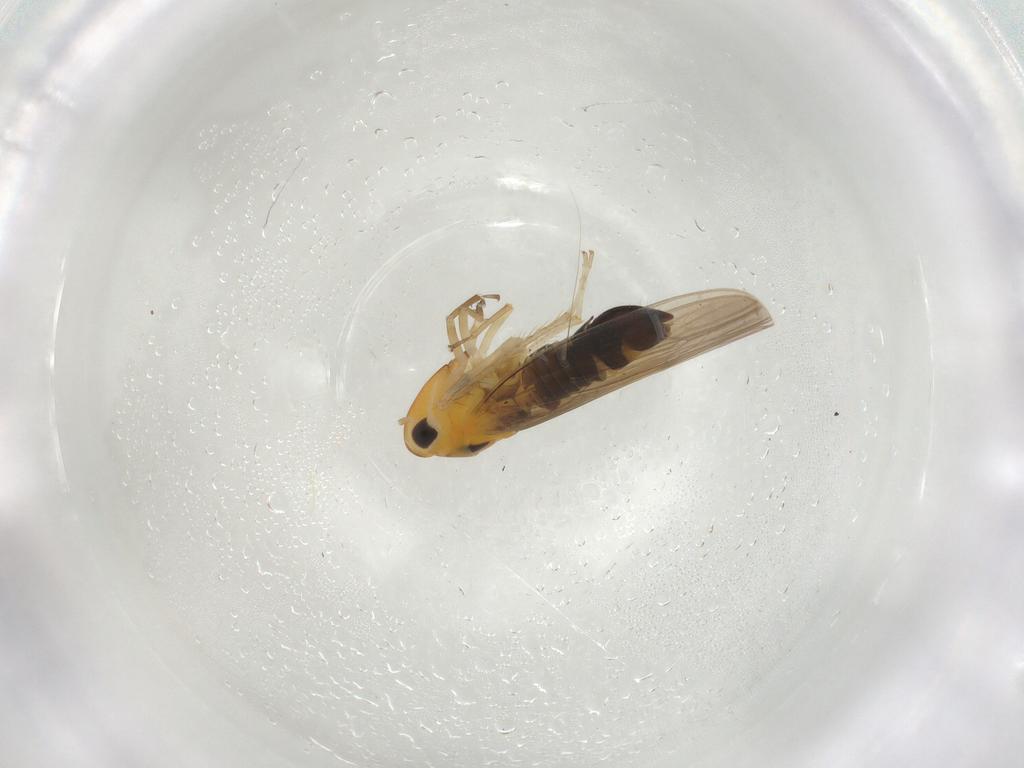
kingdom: Animalia
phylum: Arthropoda
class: Insecta
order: Hemiptera
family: Cicadellidae
